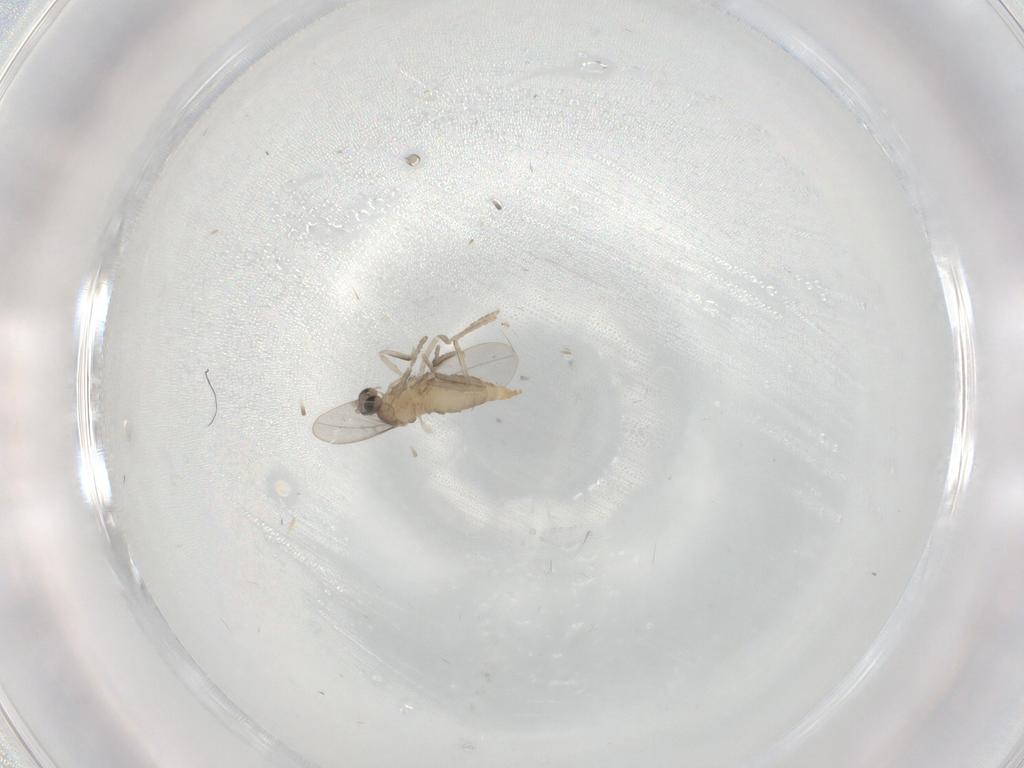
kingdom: Animalia
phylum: Arthropoda
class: Insecta
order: Diptera
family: Cecidomyiidae
